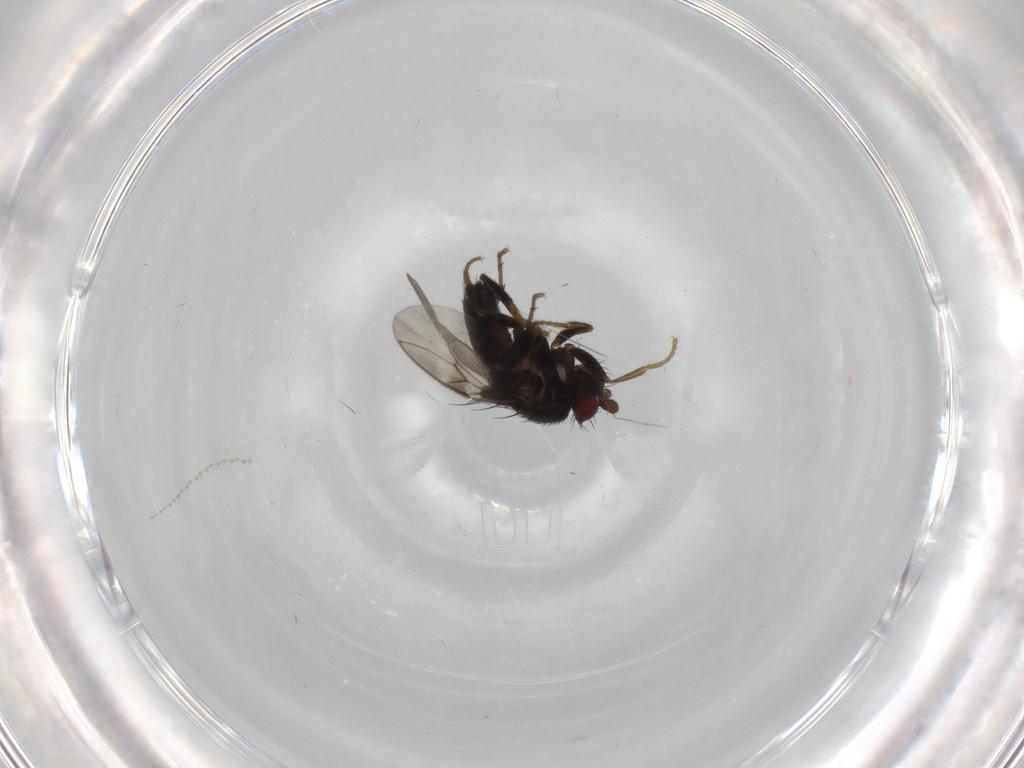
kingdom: Animalia
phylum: Arthropoda
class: Insecta
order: Diptera
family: Sphaeroceridae
